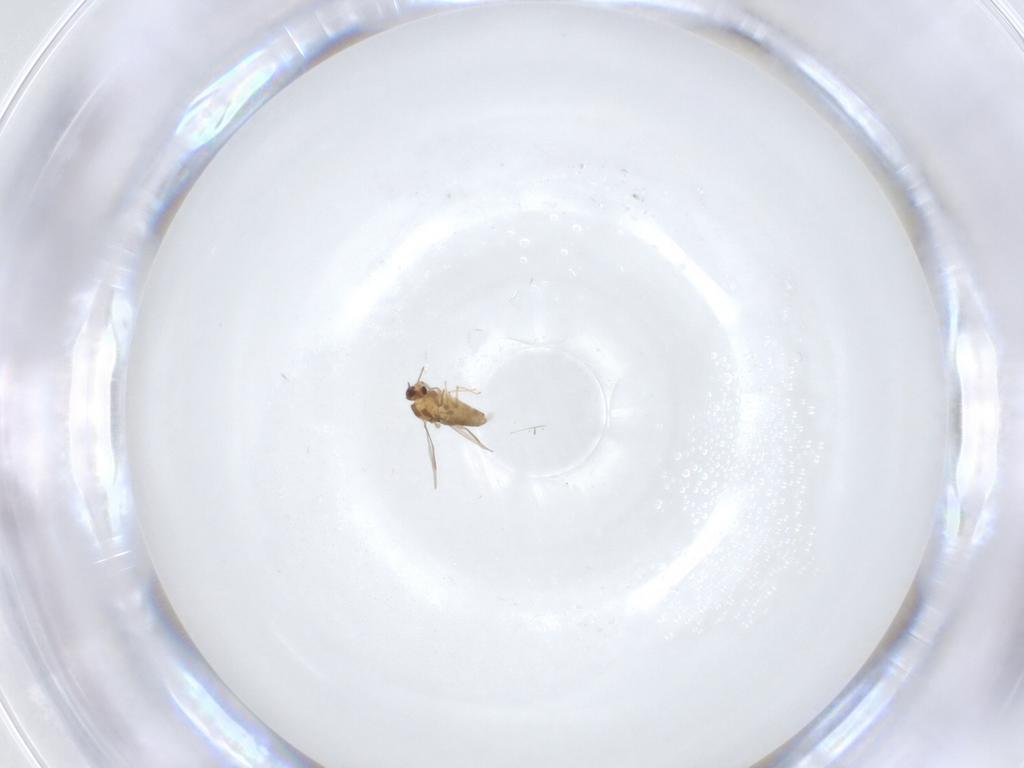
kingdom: Animalia
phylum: Arthropoda
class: Insecta
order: Diptera
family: Chironomidae
